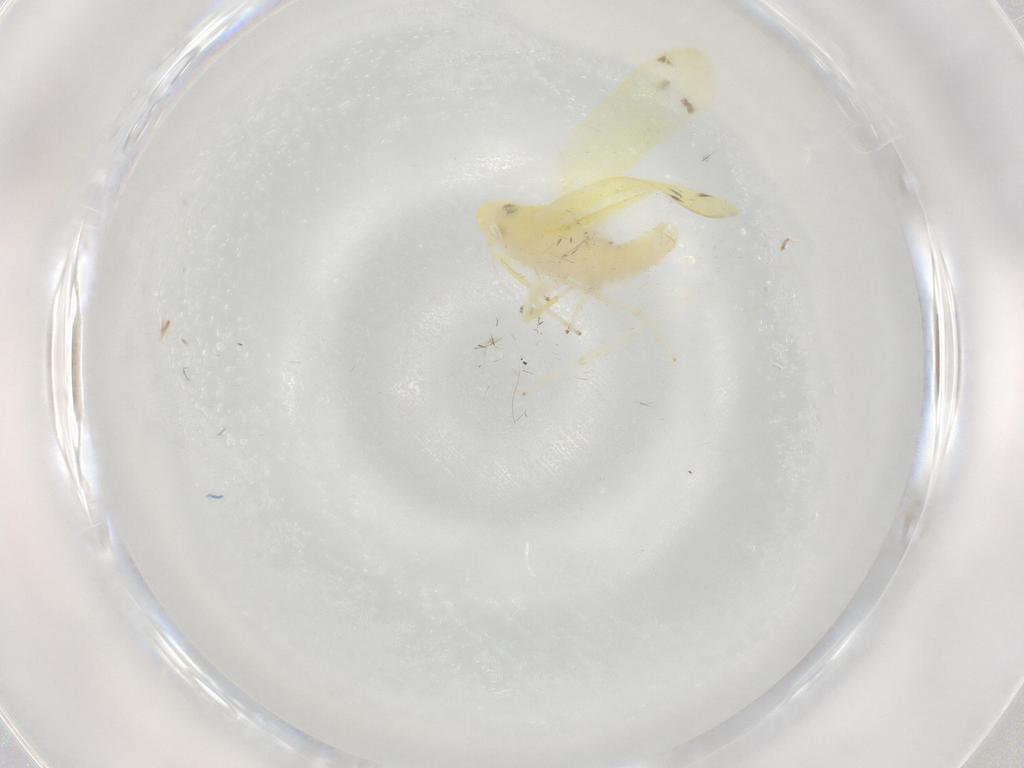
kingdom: Animalia
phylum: Arthropoda
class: Insecta
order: Hemiptera
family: Cicadellidae
